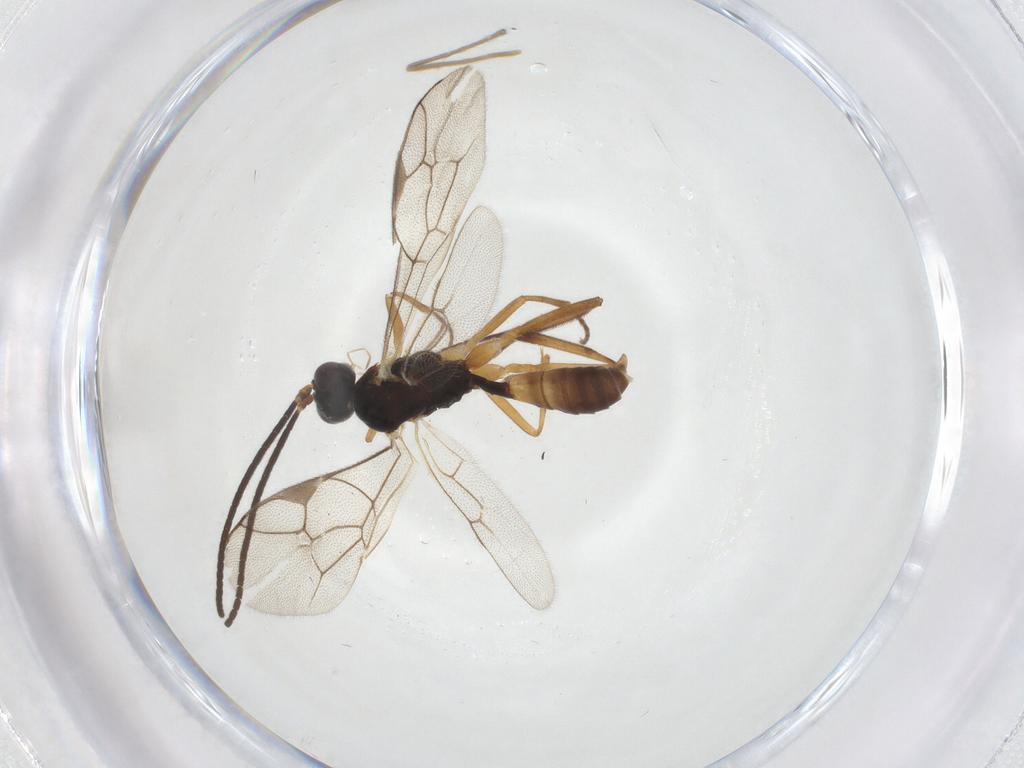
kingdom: Animalia
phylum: Arthropoda
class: Insecta
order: Hymenoptera
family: Ichneumonidae
